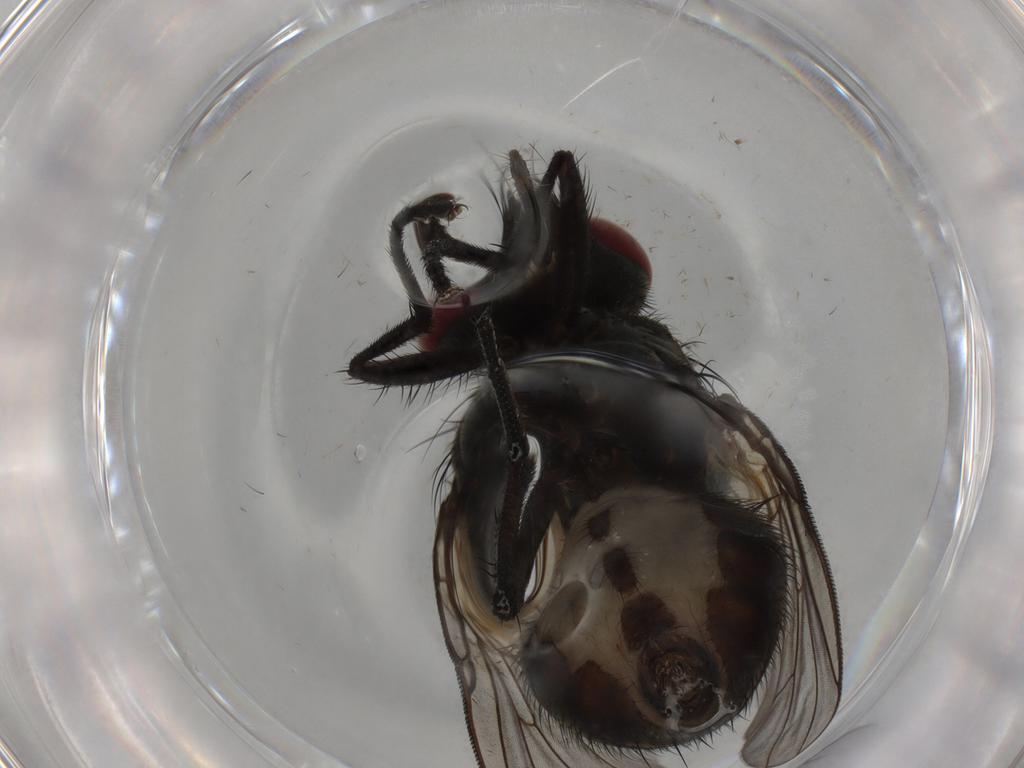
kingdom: Animalia
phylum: Arthropoda
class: Insecta
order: Diptera
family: Muscidae
